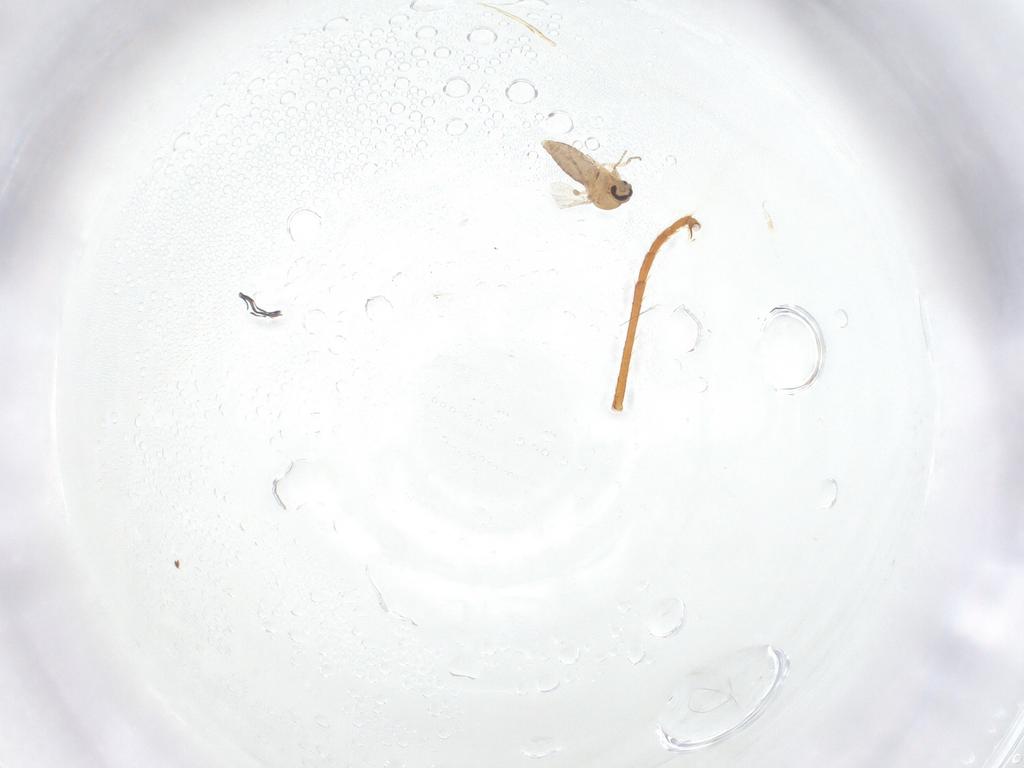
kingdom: Animalia
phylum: Arthropoda
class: Insecta
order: Diptera
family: Ceratopogonidae
